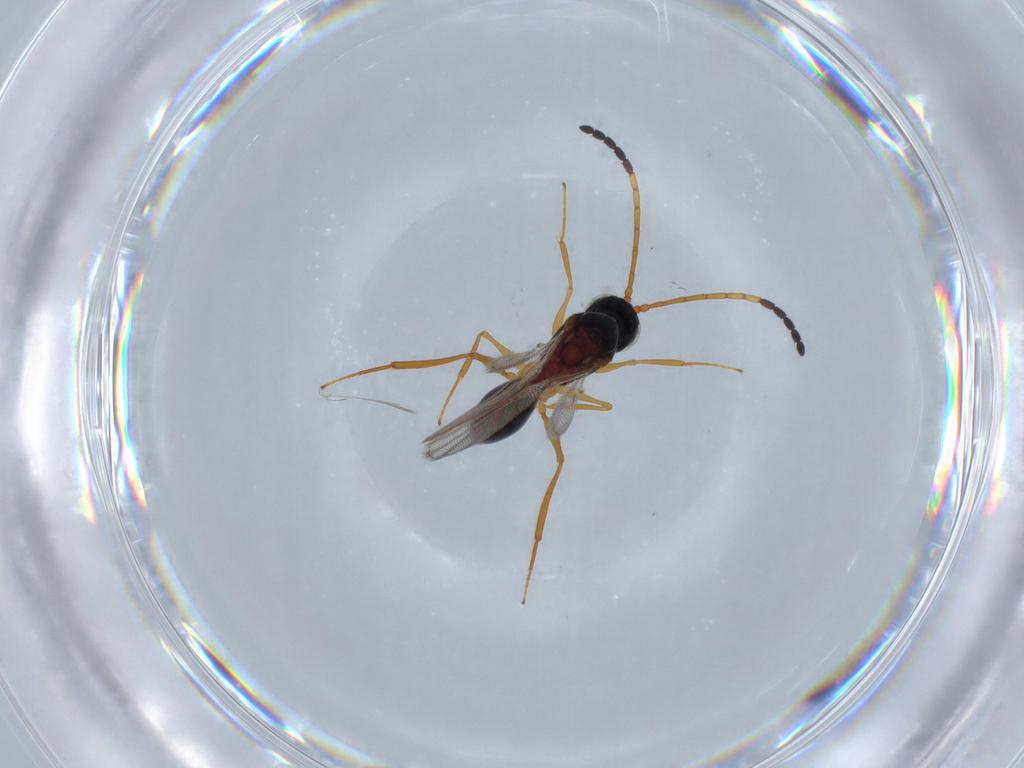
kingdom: Animalia
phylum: Arthropoda
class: Insecta
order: Hymenoptera
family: Figitidae
